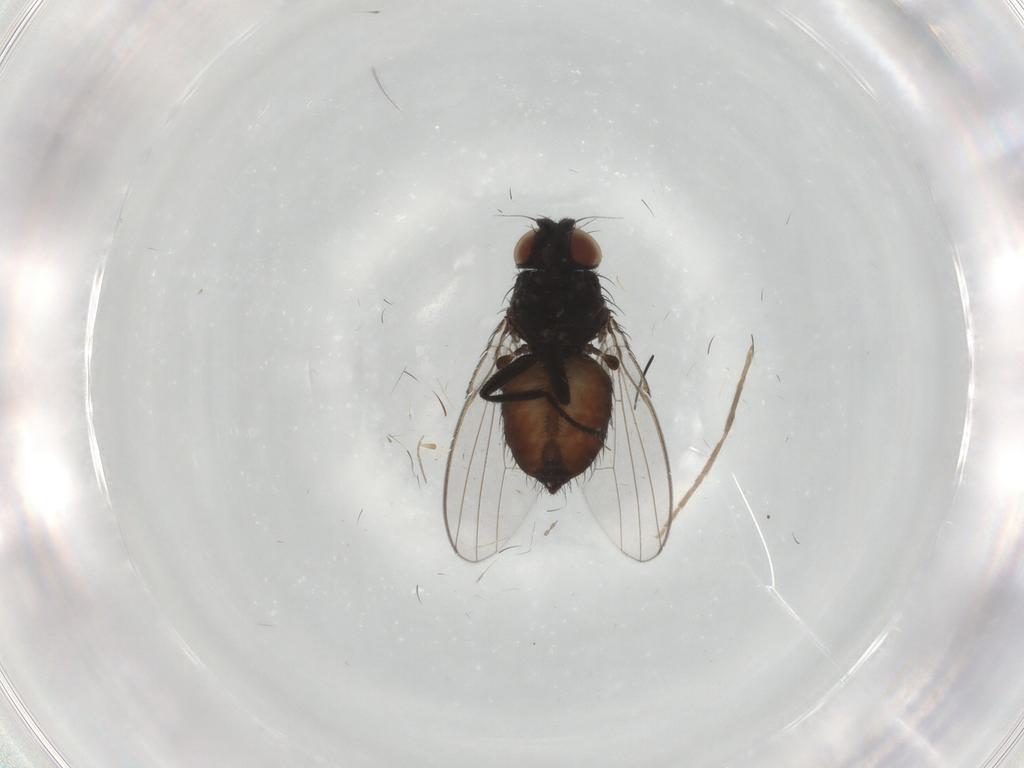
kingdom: Animalia
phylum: Arthropoda
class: Insecta
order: Diptera
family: Milichiidae
